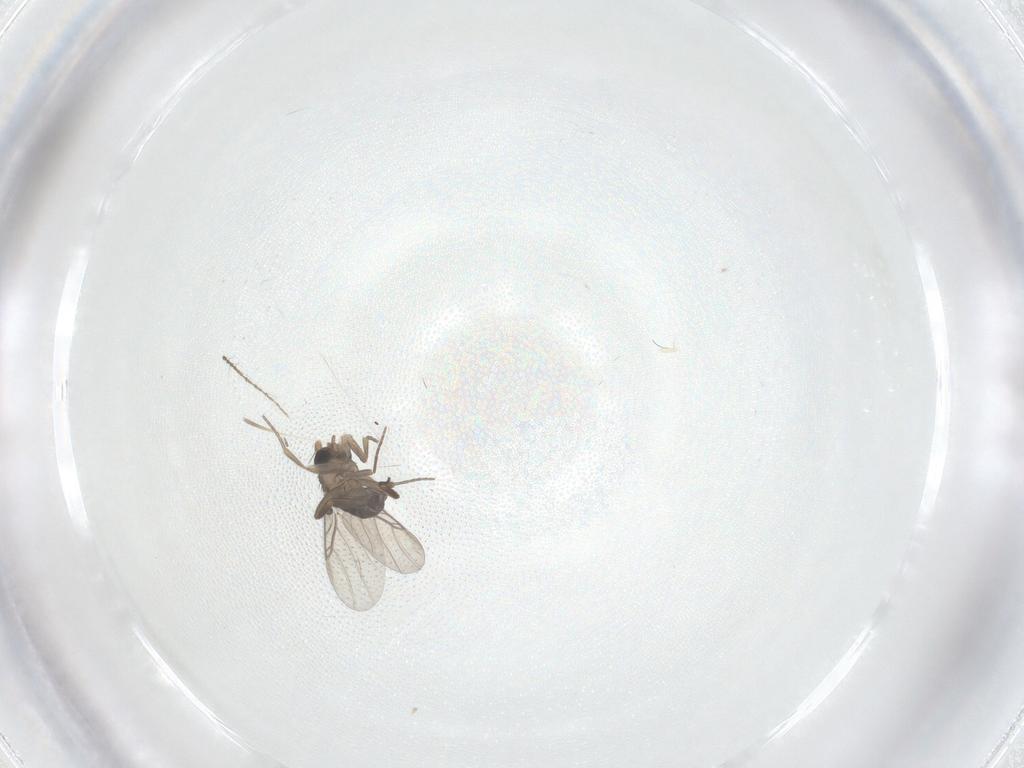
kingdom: Animalia
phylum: Arthropoda
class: Insecta
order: Diptera
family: Phoridae
